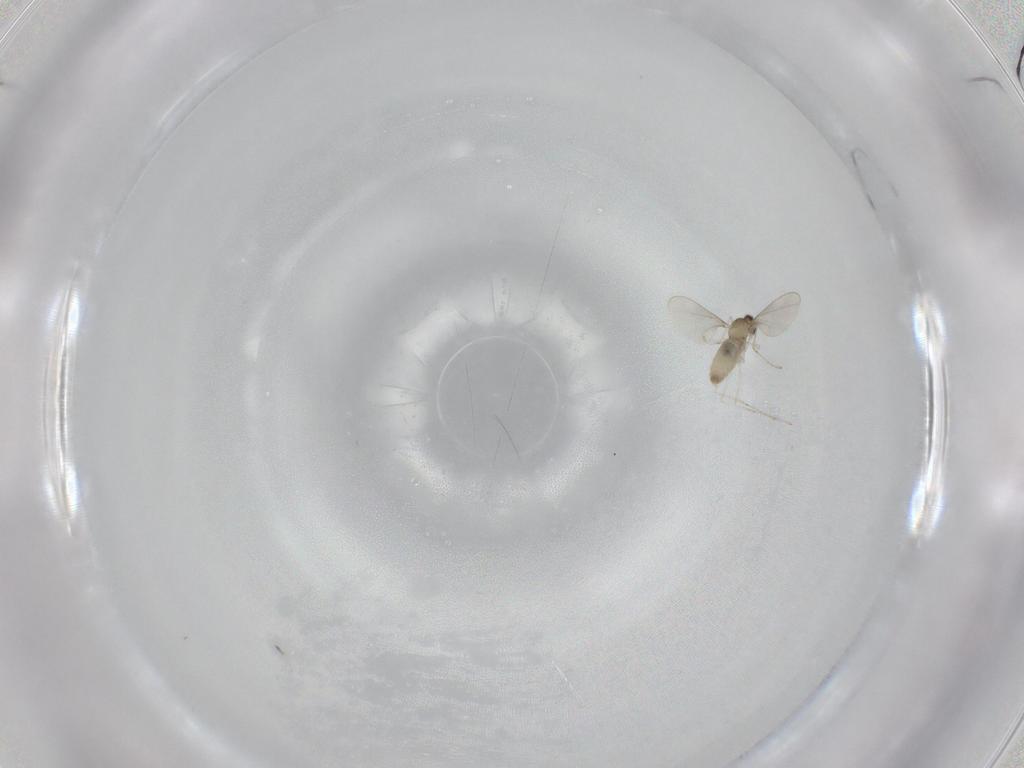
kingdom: Animalia
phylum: Arthropoda
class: Insecta
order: Diptera
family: Cecidomyiidae
